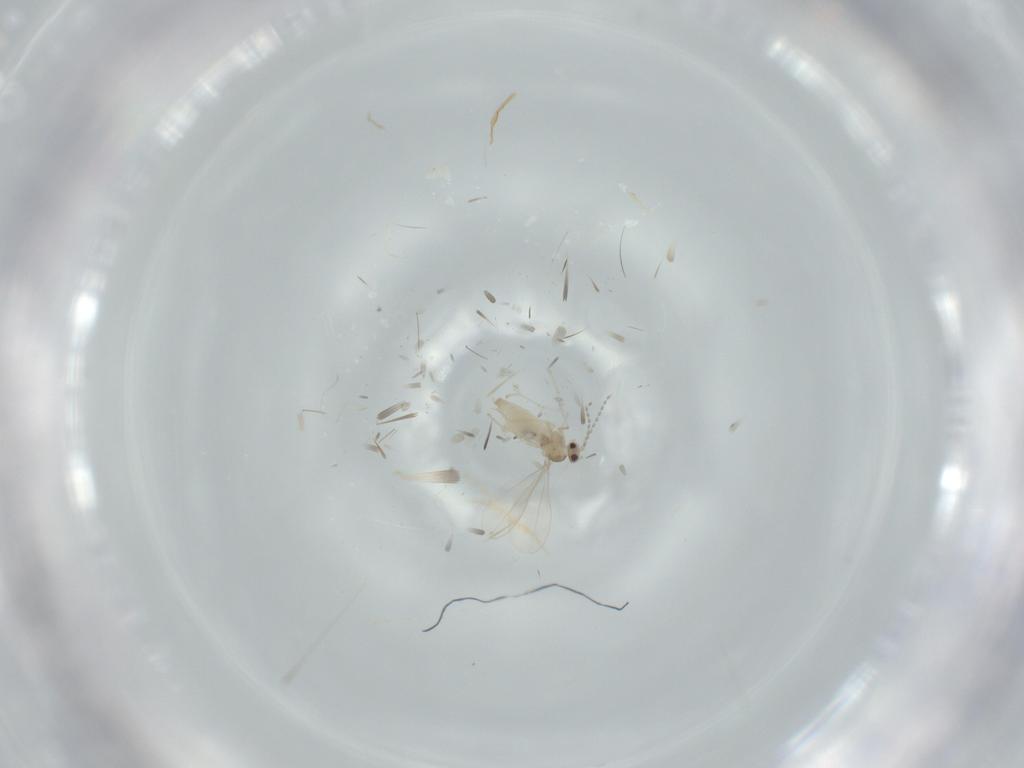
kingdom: Animalia
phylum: Arthropoda
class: Insecta
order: Diptera
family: Cecidomyiidae
